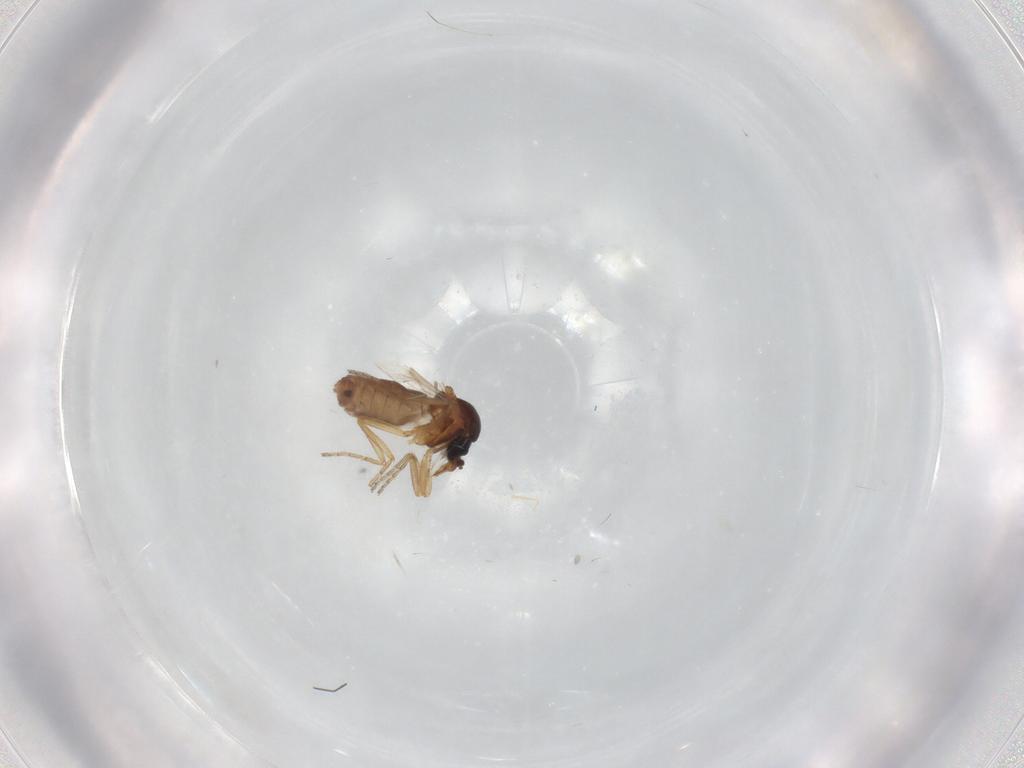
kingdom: Animalia
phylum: Arthropoda
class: Insecta
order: Diptera
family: Ceratopogonidae
